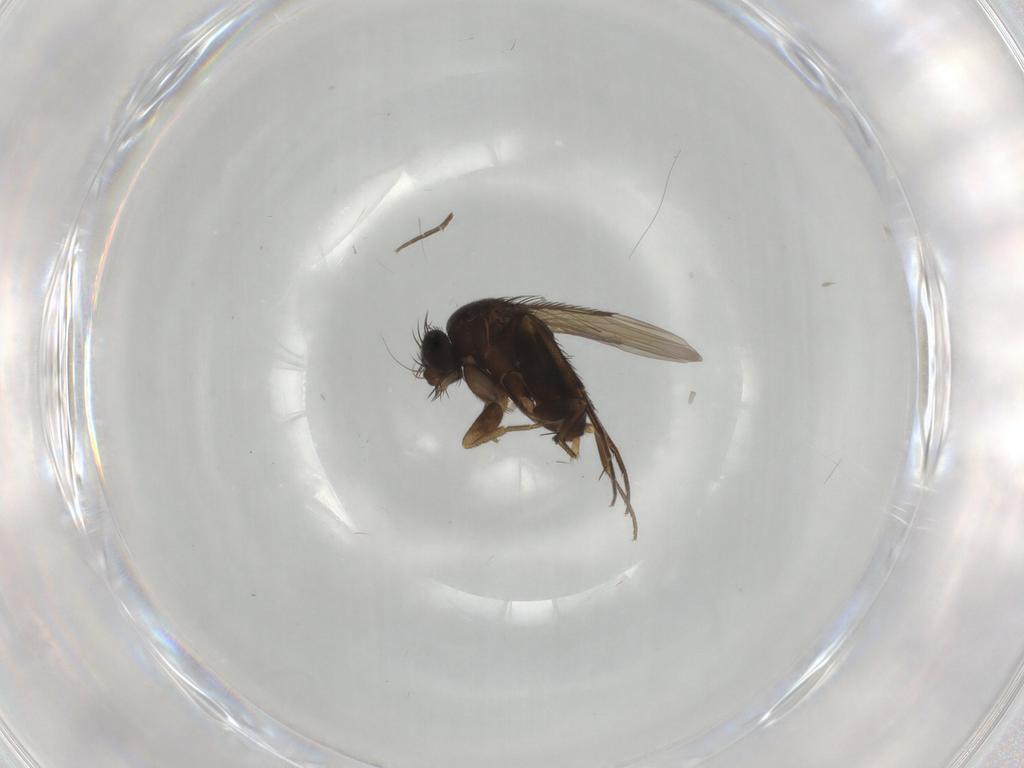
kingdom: Animalia
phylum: Arthropoda
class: Insecta
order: Diptera
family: Phoridae
